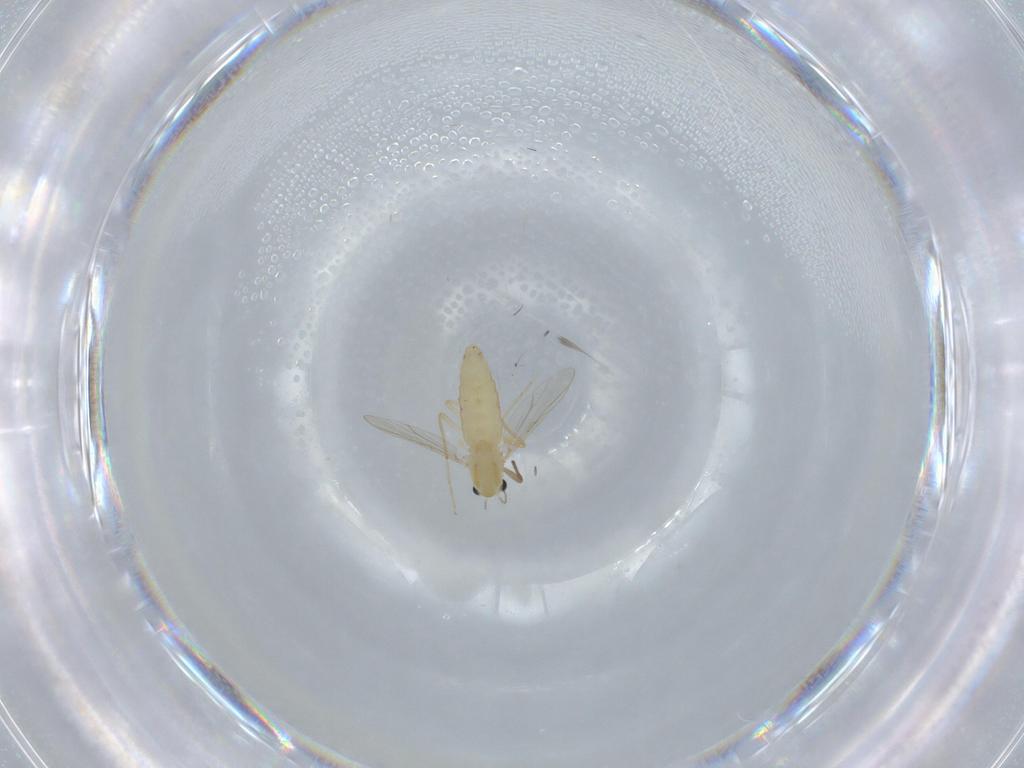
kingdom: Animalia
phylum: Arthropoda
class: Insecta
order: Diptera
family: Chironomidae
